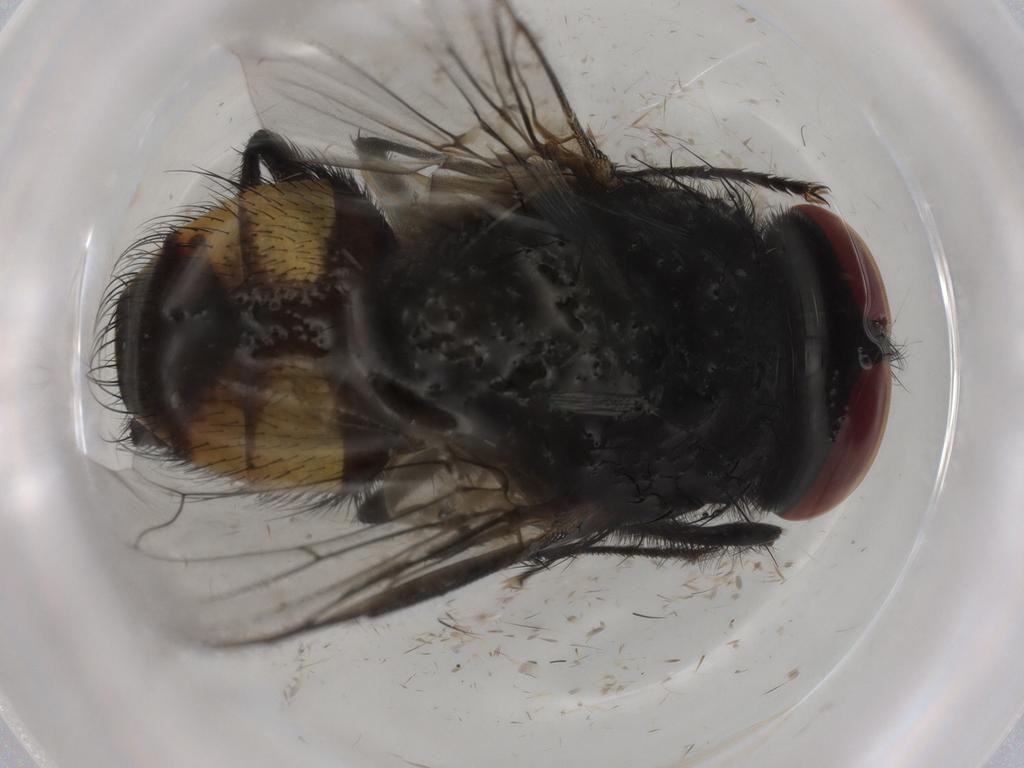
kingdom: Animalia
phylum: Arthropoda
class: Insecta
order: Diptera
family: Muscidae
